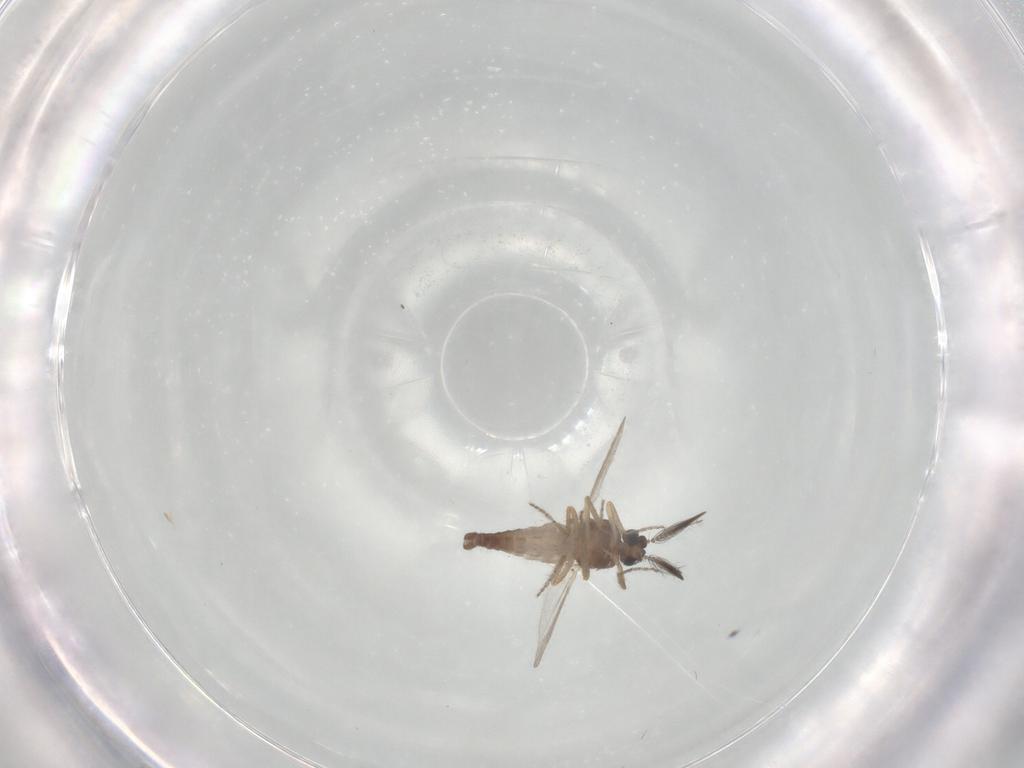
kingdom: Animalia
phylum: Arthropoda
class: Insecta
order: Diptera
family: Ceratopogonidae
